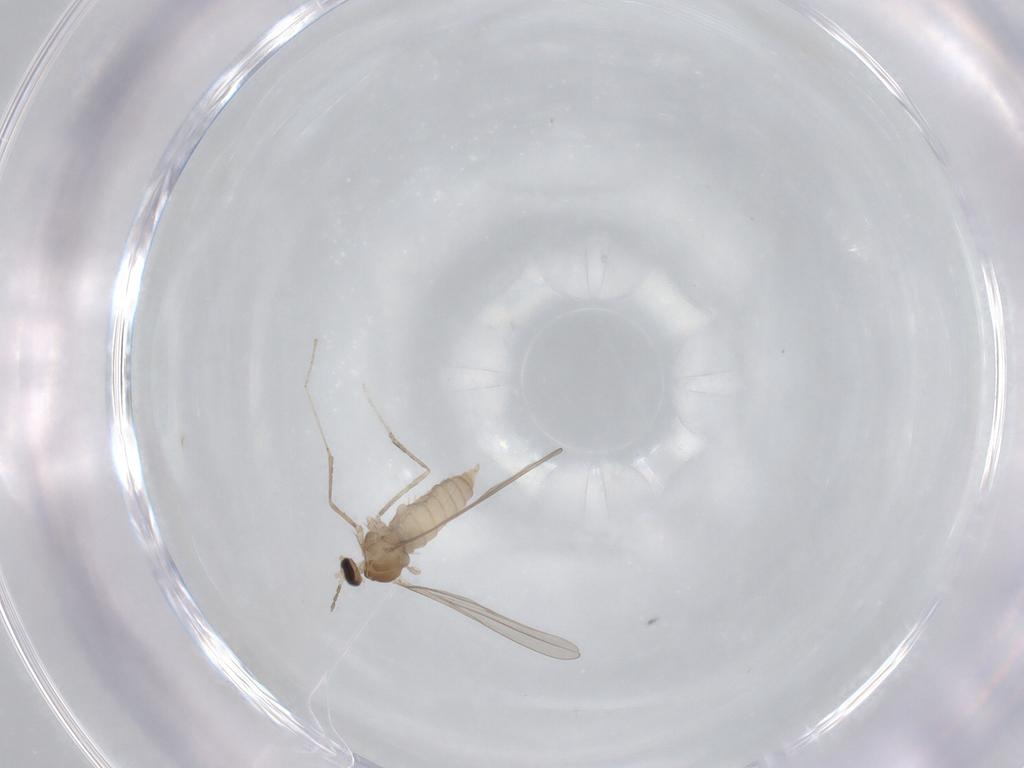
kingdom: Animalia
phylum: Arthropoda
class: Insecta
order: Diptera
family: Cecidomyiidae
